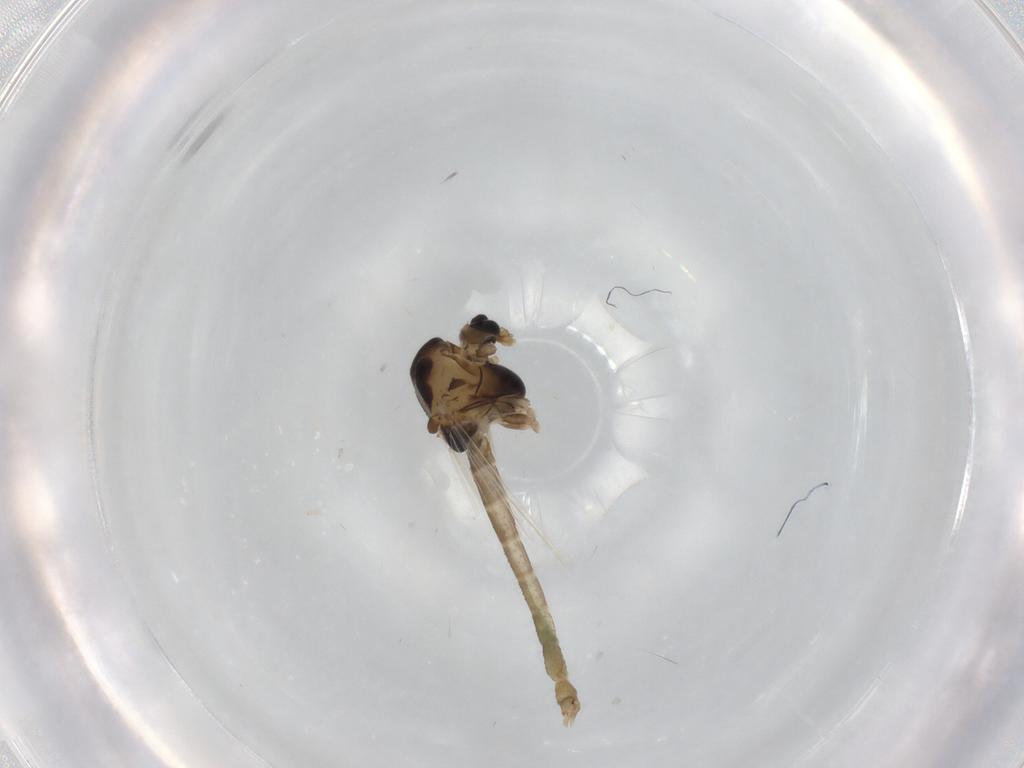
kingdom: Animalia
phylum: Arthropoda
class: Insecta
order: Diptera
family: Chironomidae
